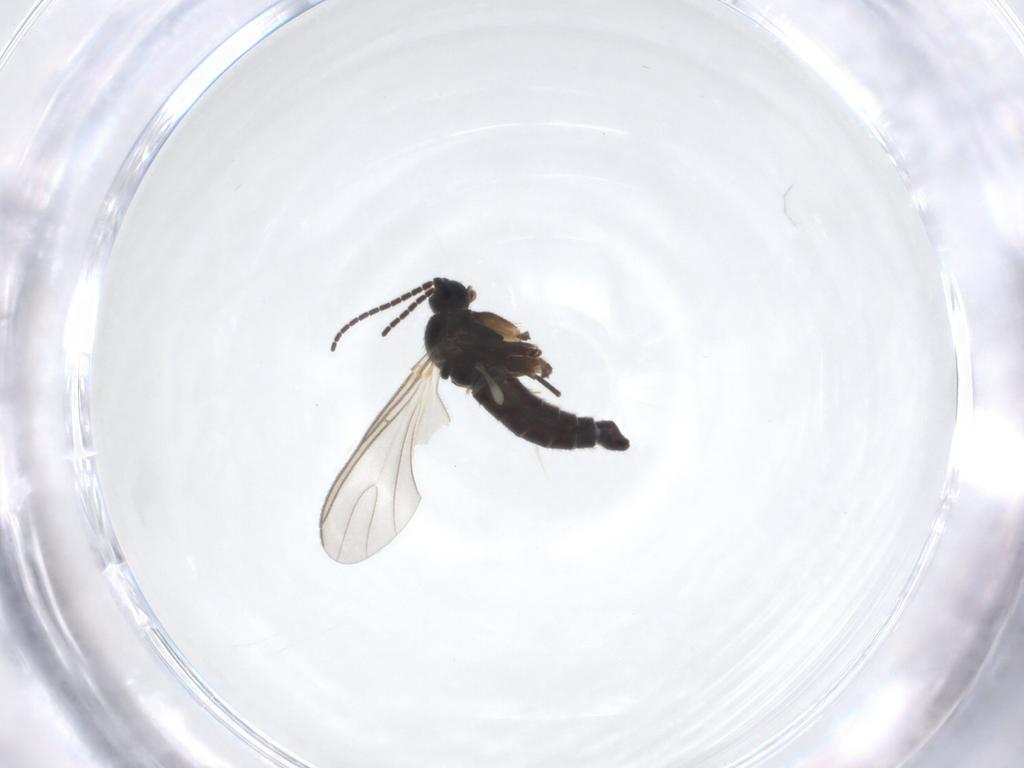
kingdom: Animalia
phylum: Arthropoda
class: Insecta
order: Diptera
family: Sciaridae
